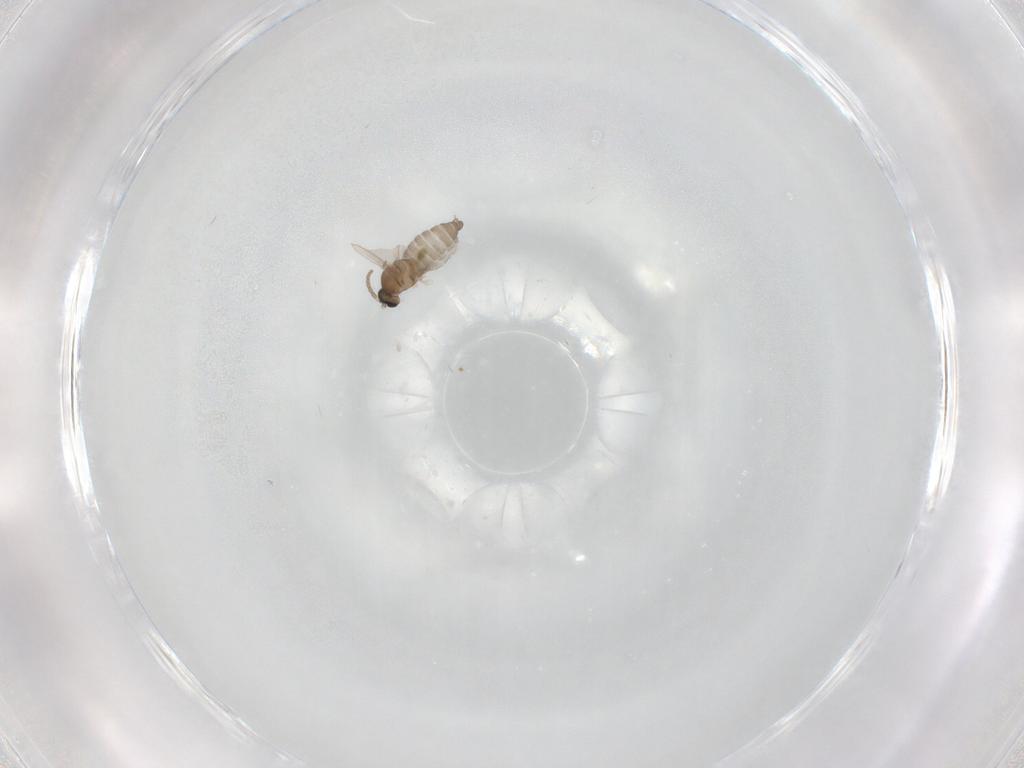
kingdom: Animalia
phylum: Arthropoda
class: Insecta
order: Diptera
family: Cecidomyiidae
